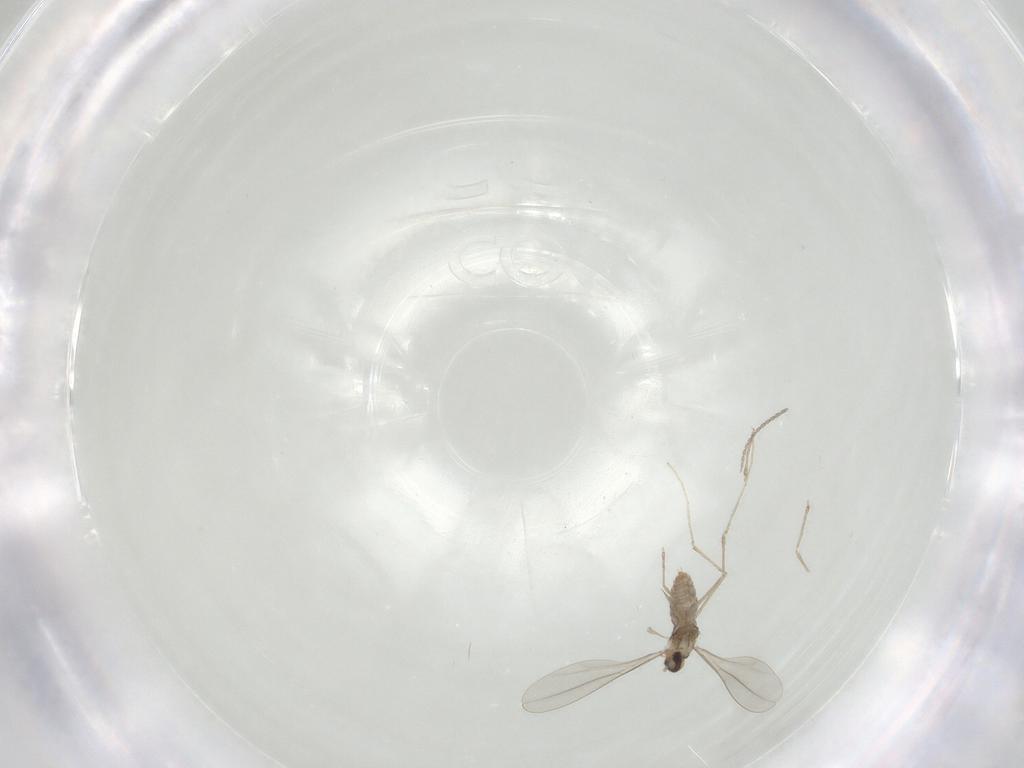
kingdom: Animalia
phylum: Arthropoda
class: Insecta
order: Diptera
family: Cecidomyiidae
